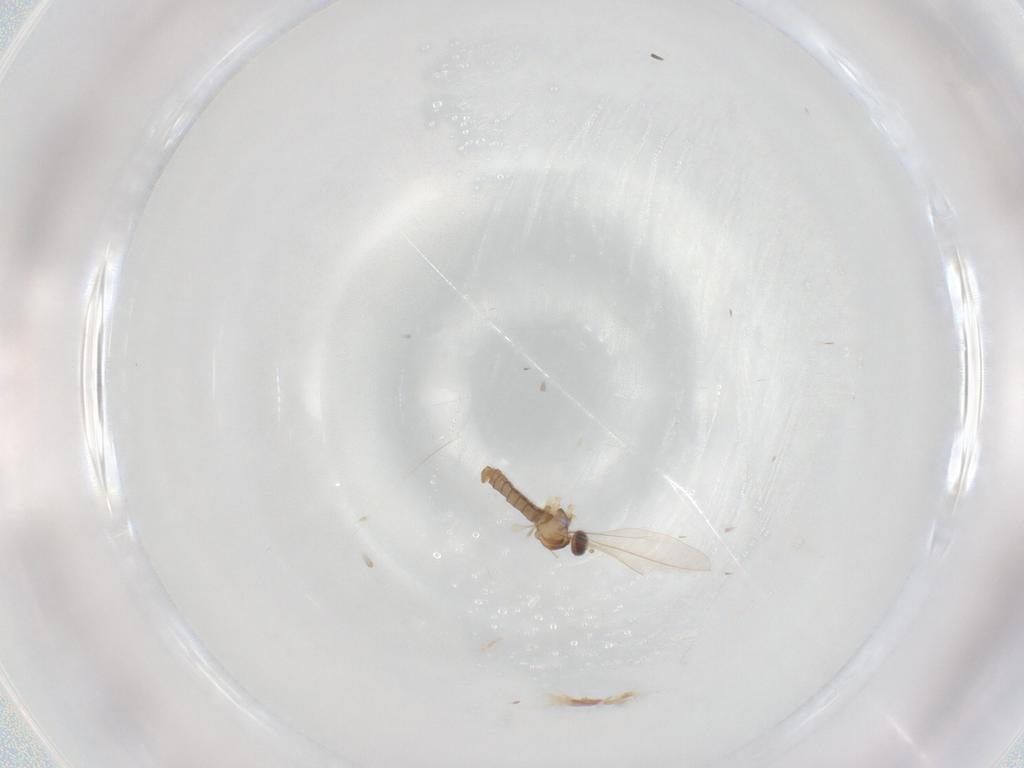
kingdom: Animalia
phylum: Arthropoda
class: Insecta
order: Diptera
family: Cecidomyiidae
